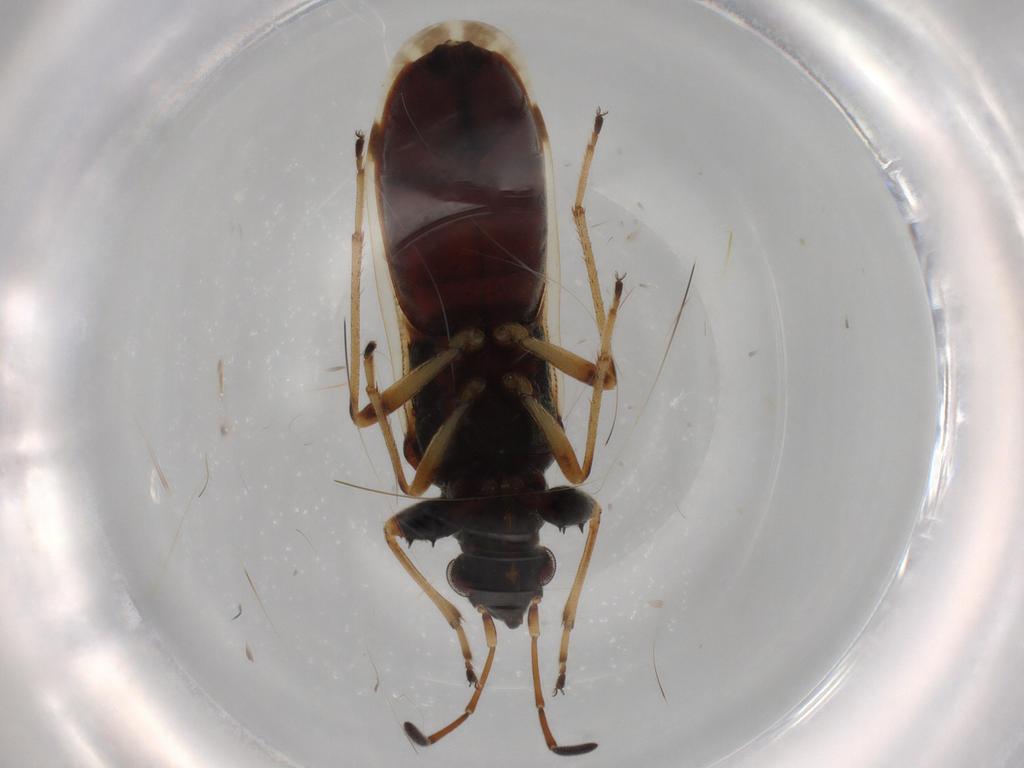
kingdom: Animalia
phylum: Arthropoda
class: Insecta
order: Hemiptera
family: Rhyparochromidae
